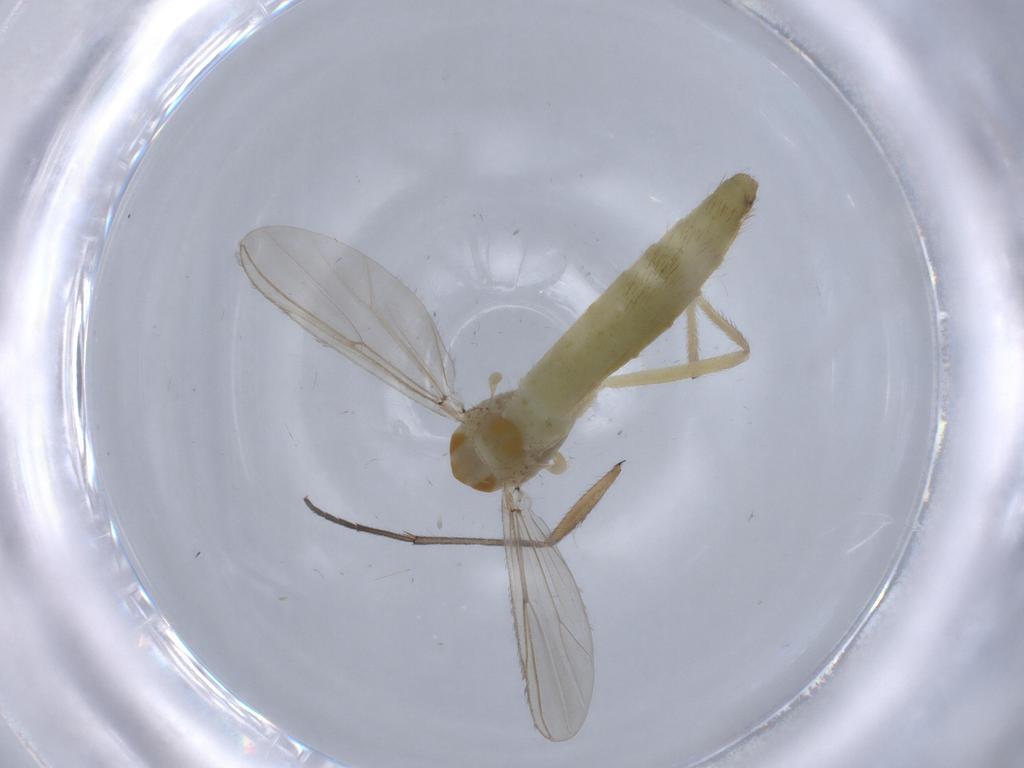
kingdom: Animalia
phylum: Arthropoda
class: Insecta
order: Diptera
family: Chironomidae
